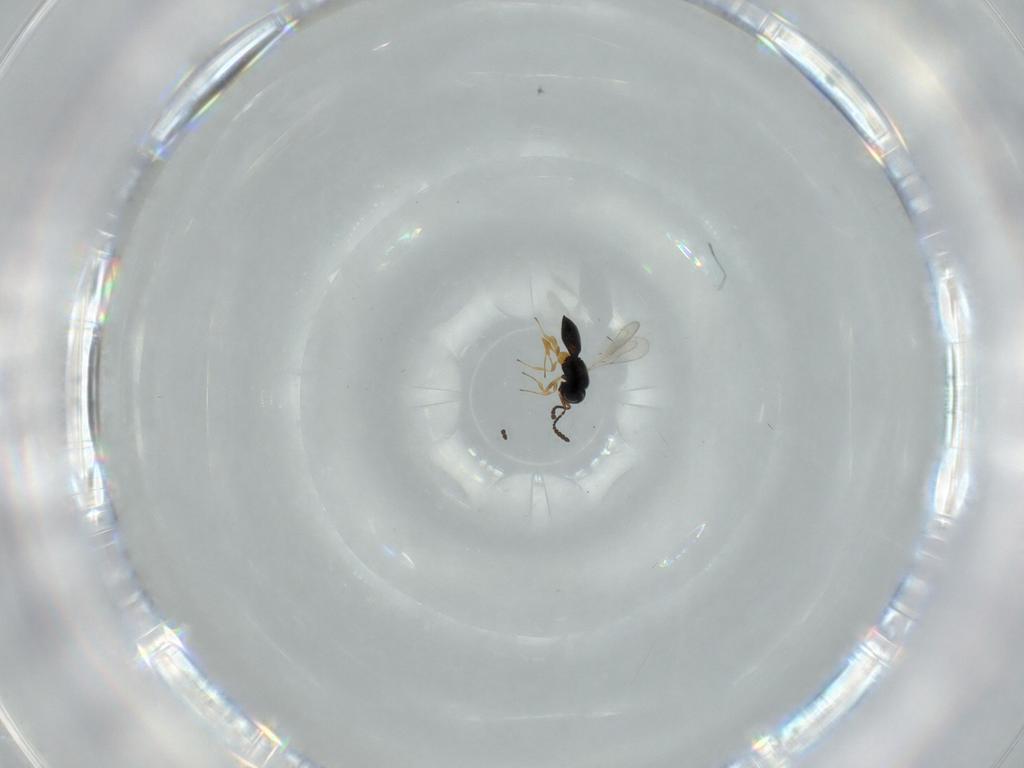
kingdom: Animalia
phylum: Arthropoda
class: Insecta
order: Hymenoptera
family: Scelionidae
